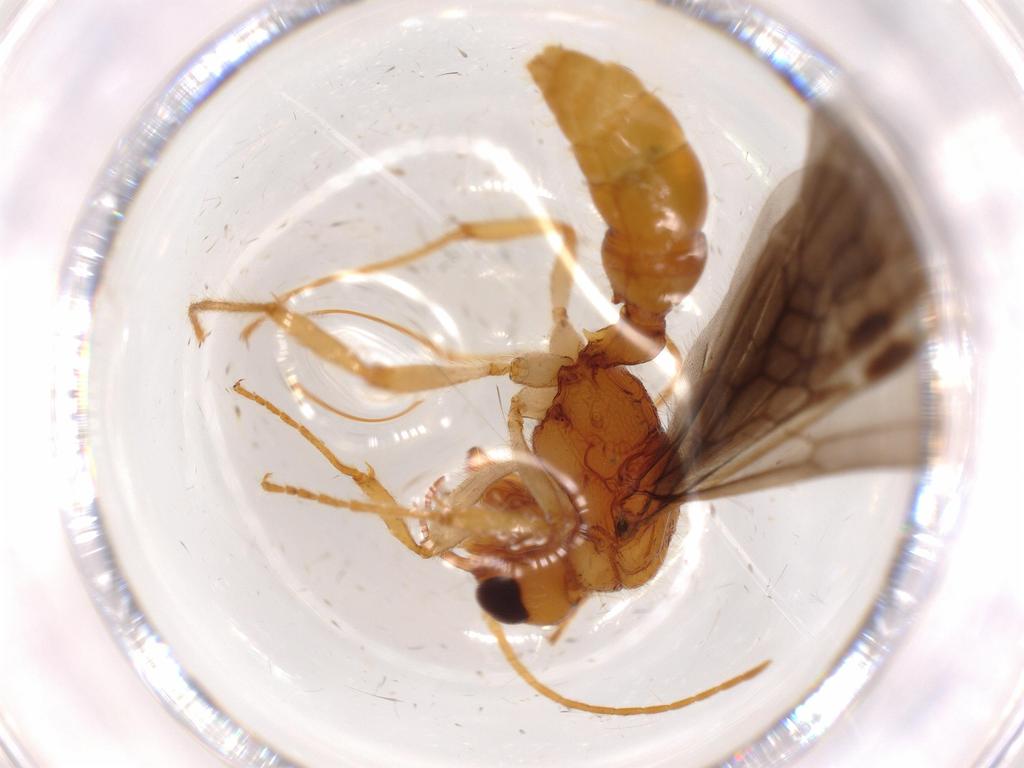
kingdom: Animalia
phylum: Arthropoda
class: Insecta
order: Hymenoptera
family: Formicidae
